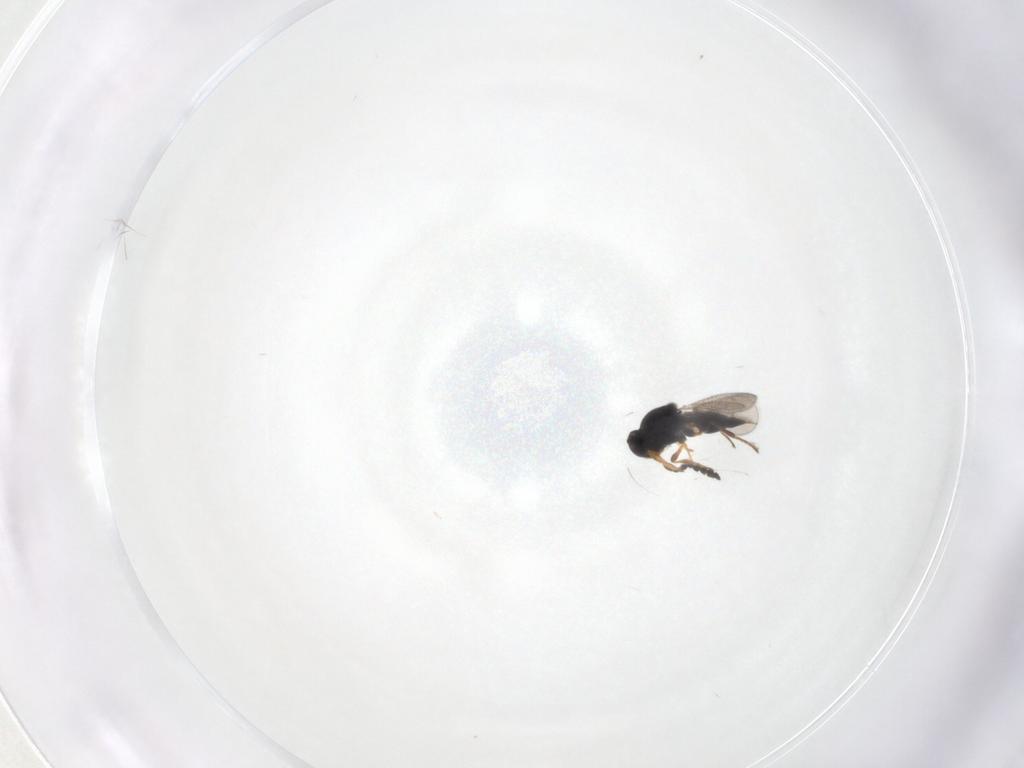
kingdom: Animalia
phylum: Arthropoda
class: Insecta
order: Hymenoptera
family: Platygastridae
